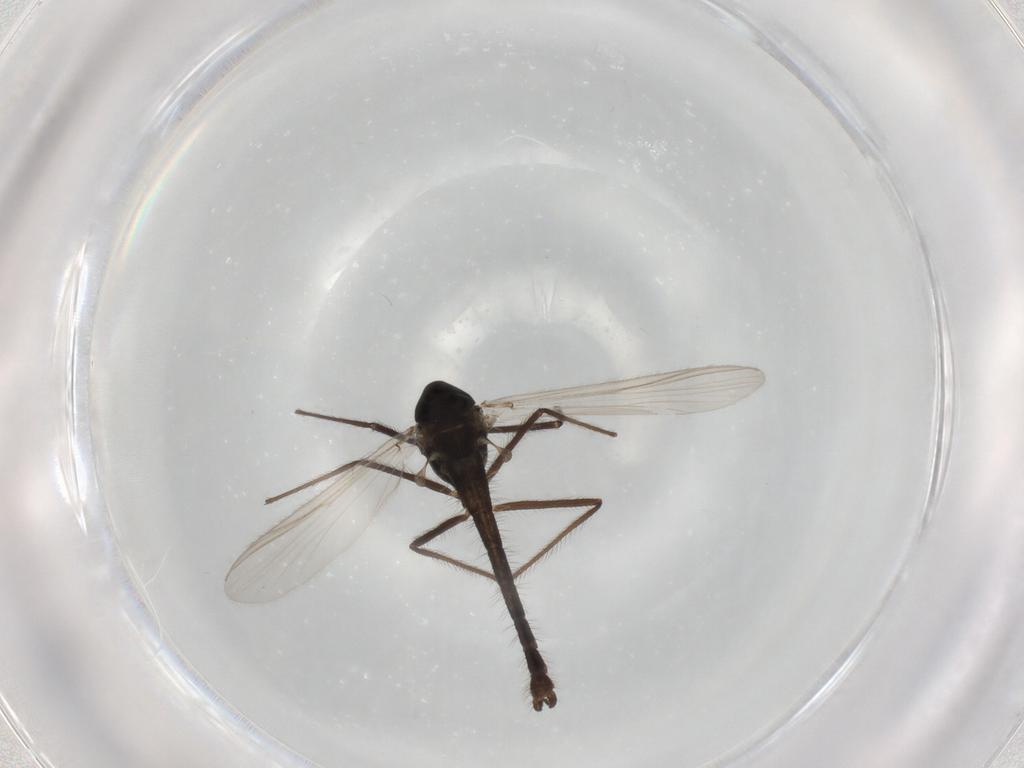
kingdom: Animalia
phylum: Arthropoda
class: Insecta
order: Diptera
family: Chironomidae
